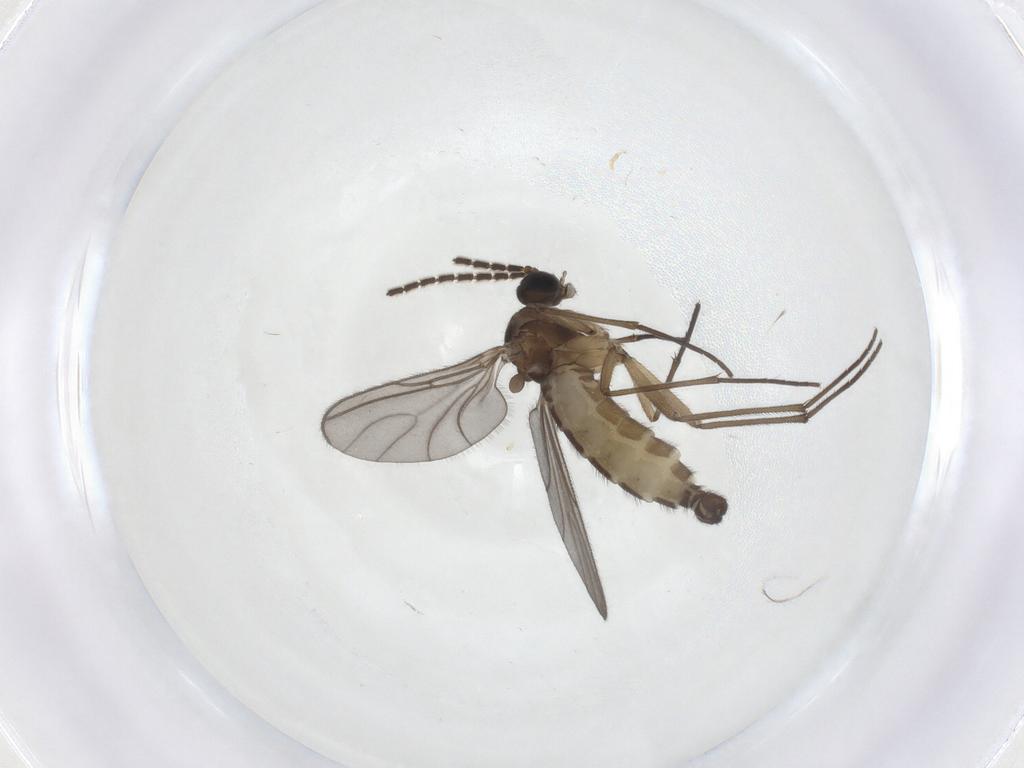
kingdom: Animalia
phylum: Arthropoda
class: Insecta
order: Diptera
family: Sciaridae
